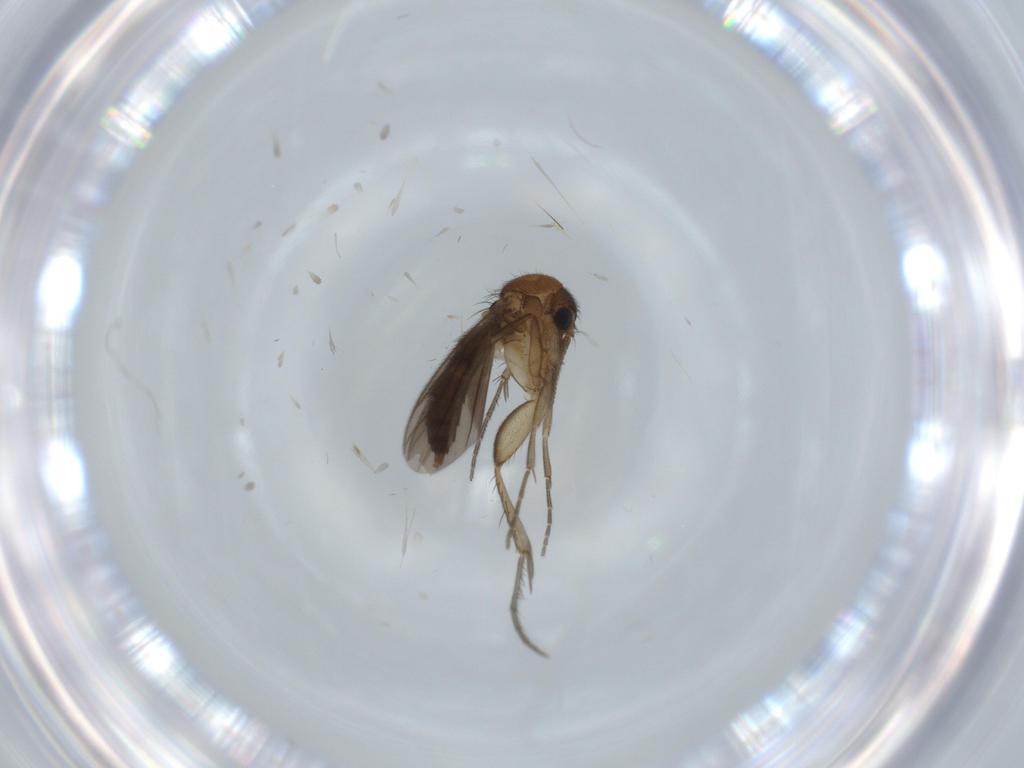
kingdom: Animalia
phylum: Arthropoda
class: Insecta
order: Diptera
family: Mycetophilidae
